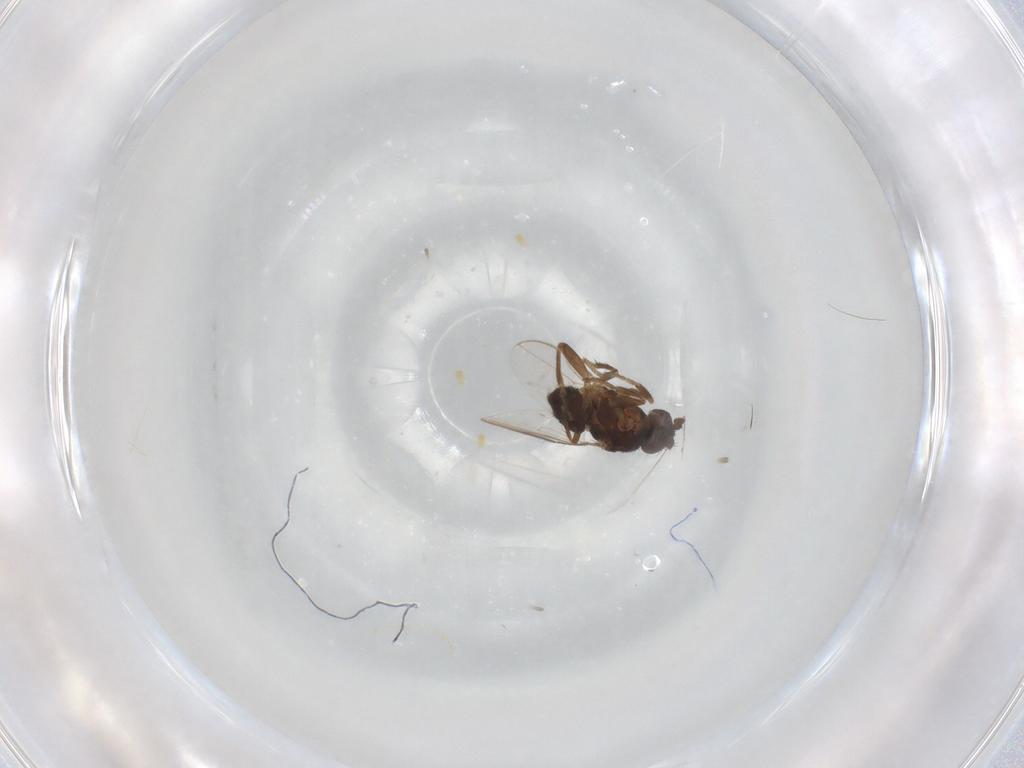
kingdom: Animalia
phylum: Arthropoda
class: Insecta
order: Diptera
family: Sphaeroceridae
